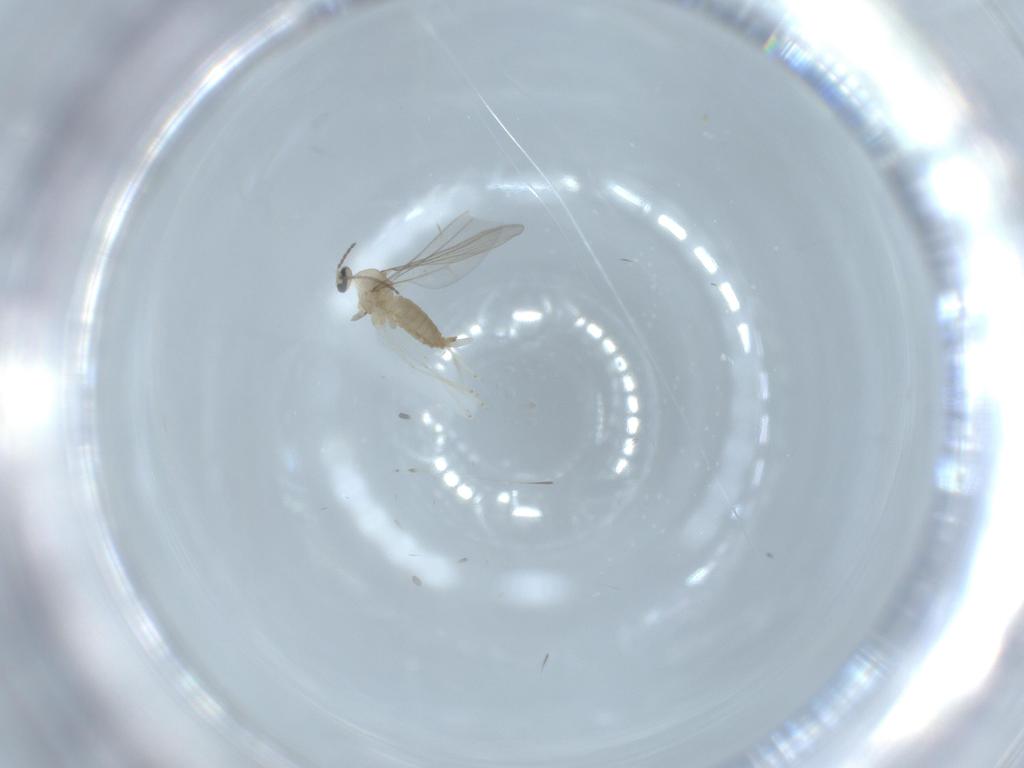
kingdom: Animalia
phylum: Arthropoda
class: Insecta
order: Diptera
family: Cecidomyiidae
